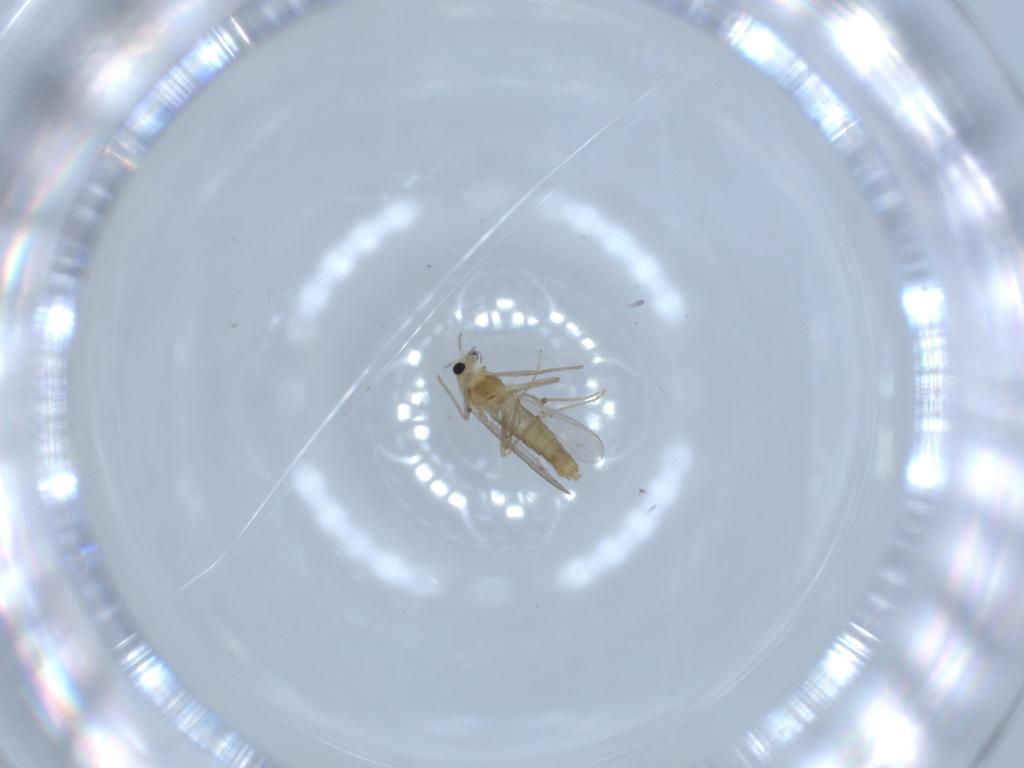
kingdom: Animalia
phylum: Arthropoda
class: Insecta
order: Diptera
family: Chironomidae
